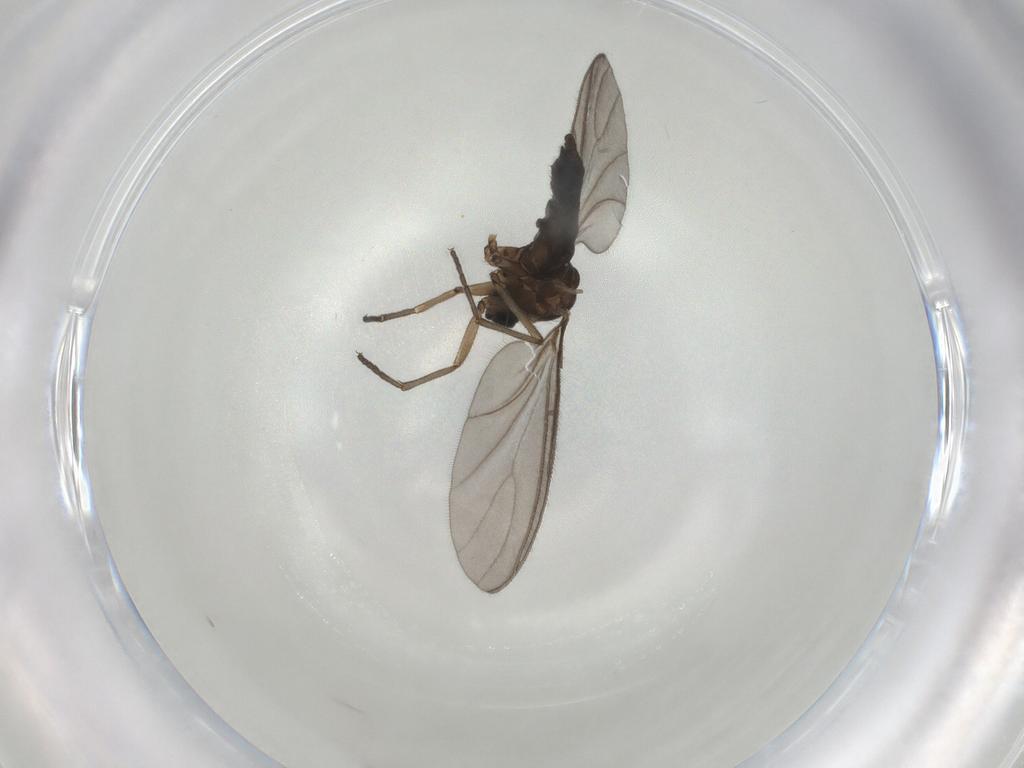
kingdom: Animalia
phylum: Arthropoda
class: Insecta
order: Diptera
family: Sciaridae
